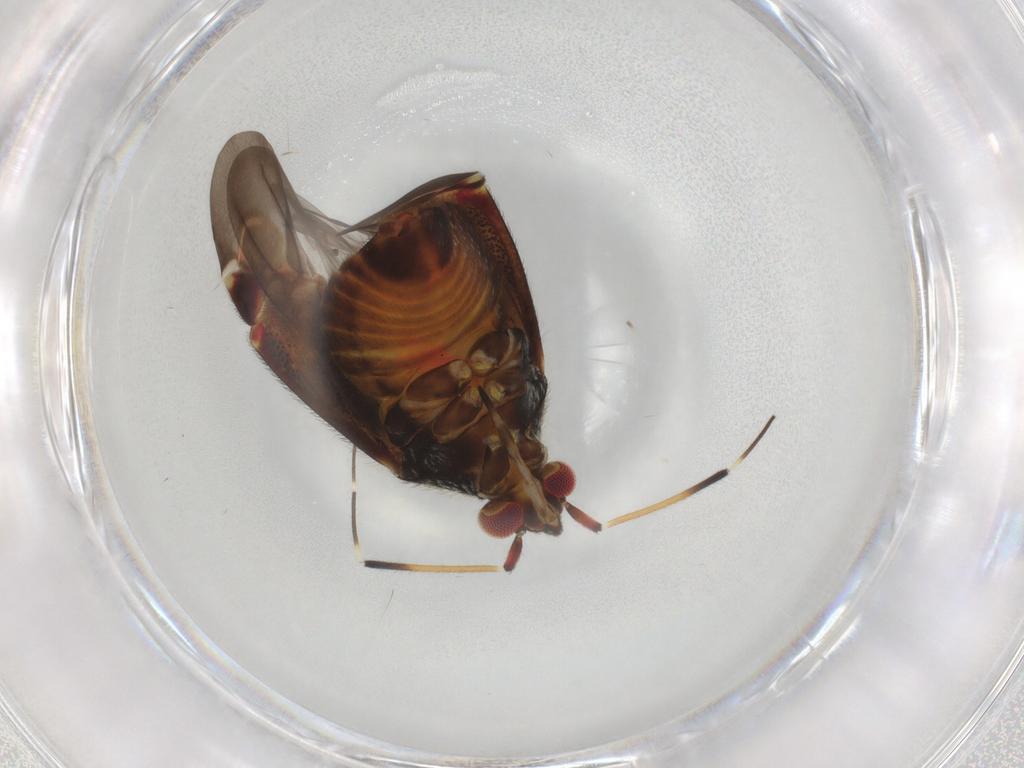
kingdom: Animalia
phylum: Arthropoda
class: Insecta
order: Hemiptera
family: Miridae
